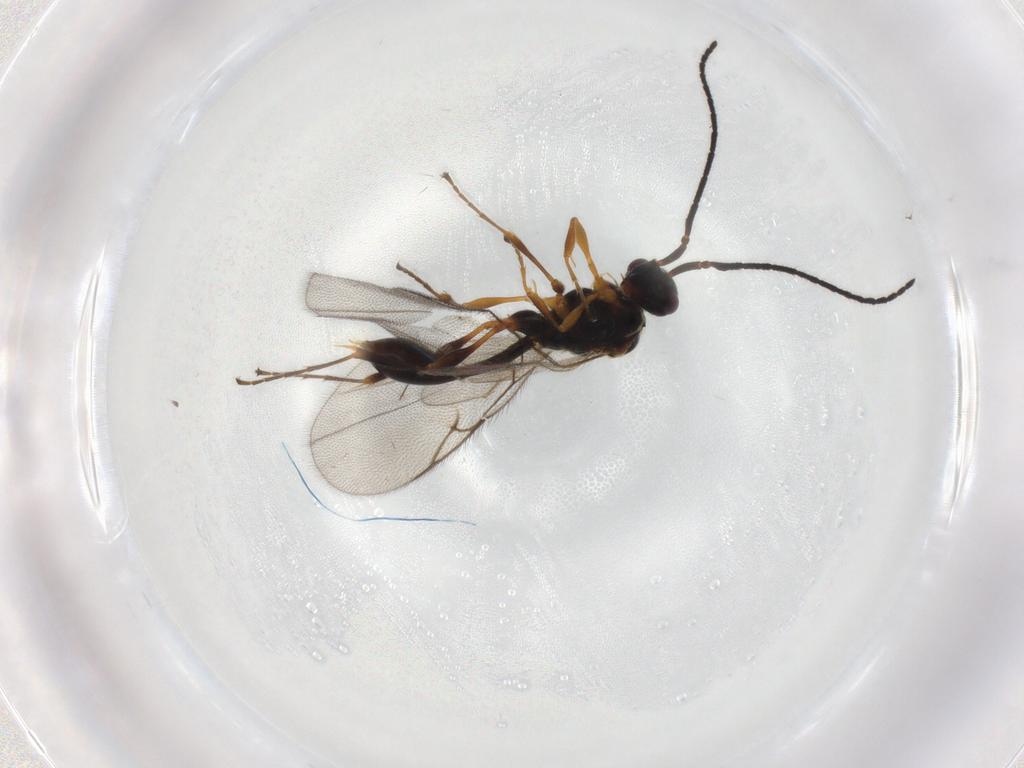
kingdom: Animalia
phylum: Arthropoda
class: Insecta
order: Hymenoptera
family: Diapriidae
